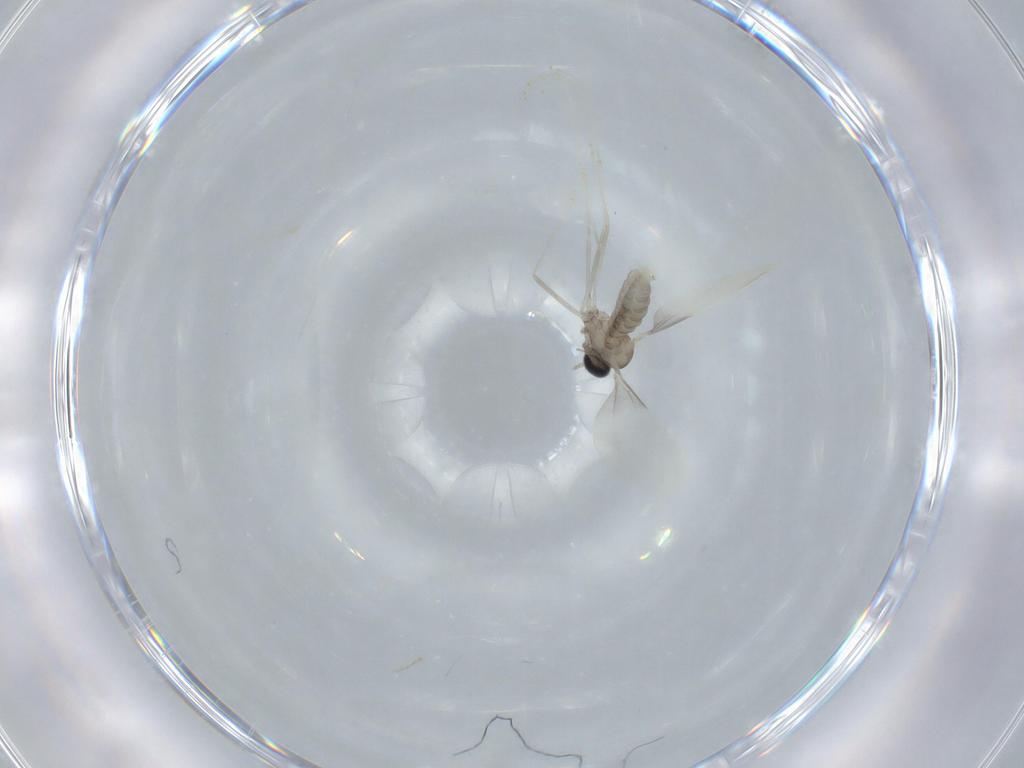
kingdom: Animalia
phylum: Arthropoda
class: Insecta
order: Diptera
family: Cecidomyiidae
